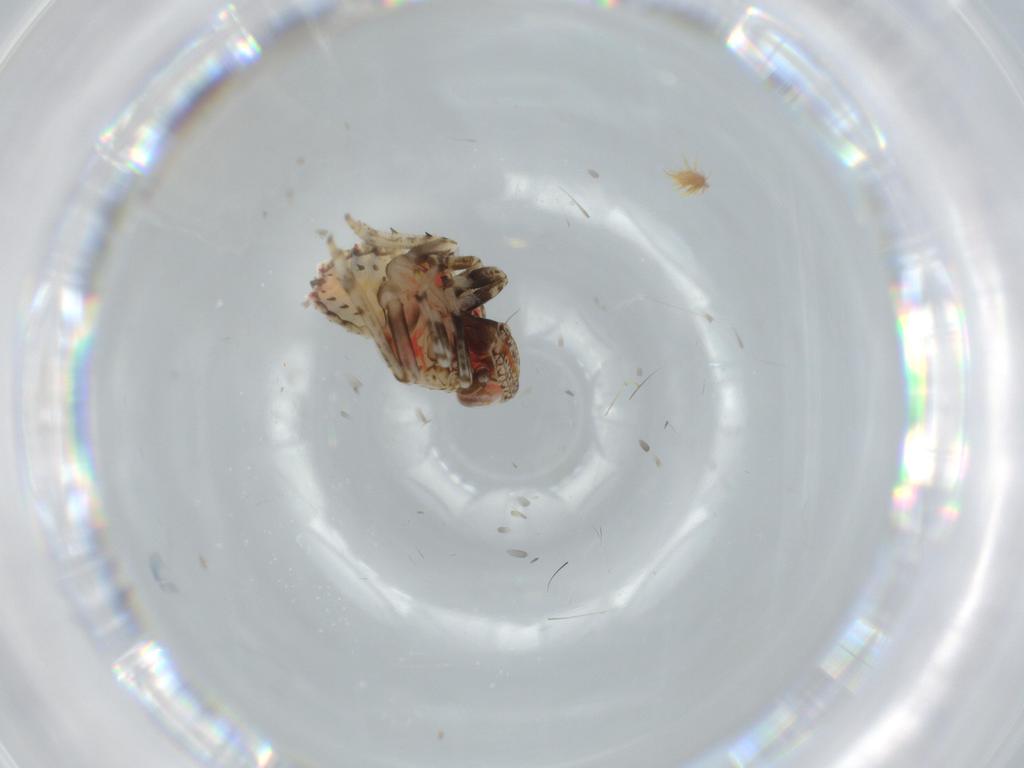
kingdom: Animalia
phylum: Arthropoda
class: Insecta
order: Hemiptera
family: Issidae
